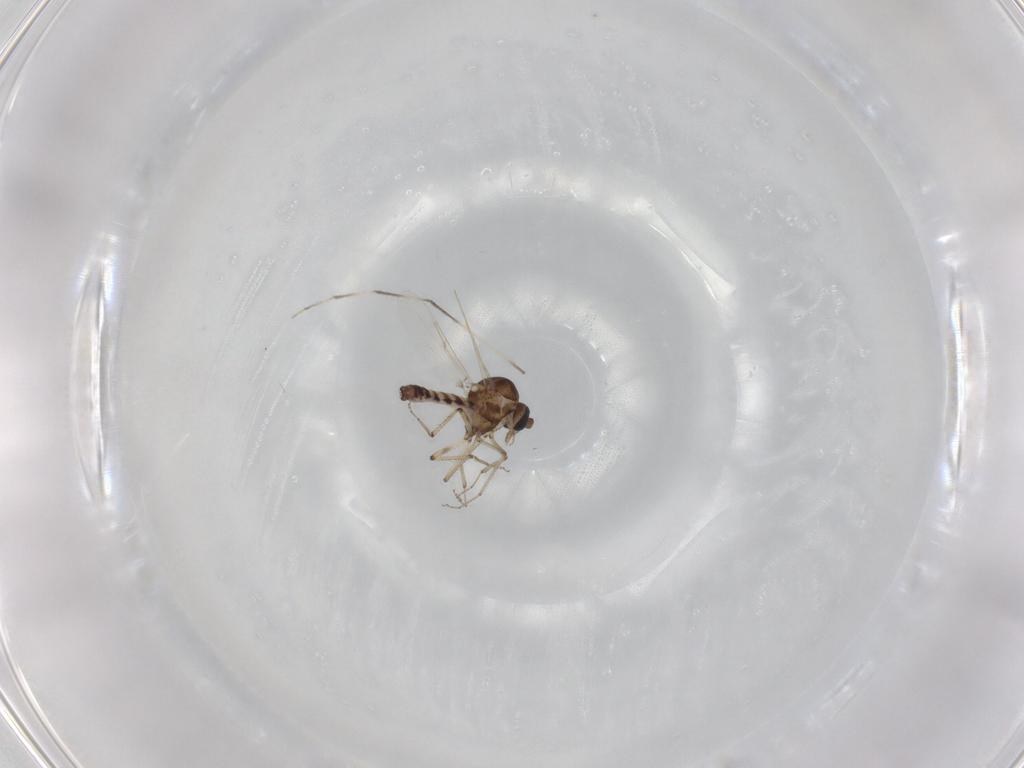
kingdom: Animalia
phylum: Arthropoda
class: Insecta
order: Diptera
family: Ceratopogonidae
